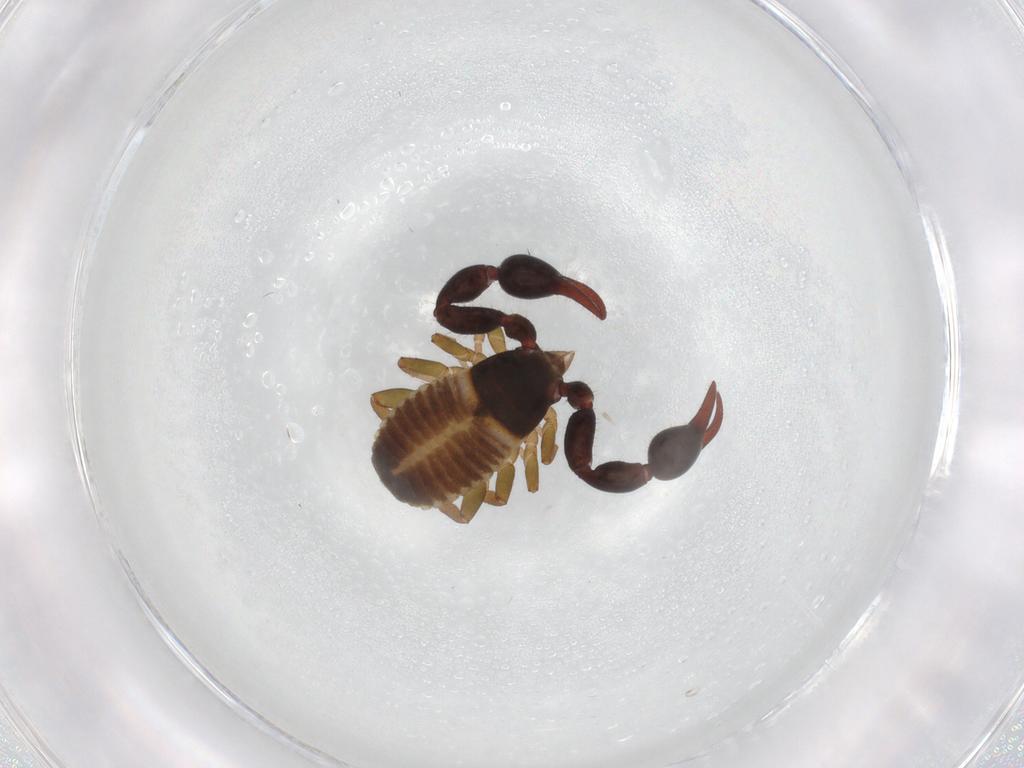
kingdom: Animalia
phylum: Arthropoda
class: Arachnida
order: Pseudoscorpiones
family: Chernetidae
